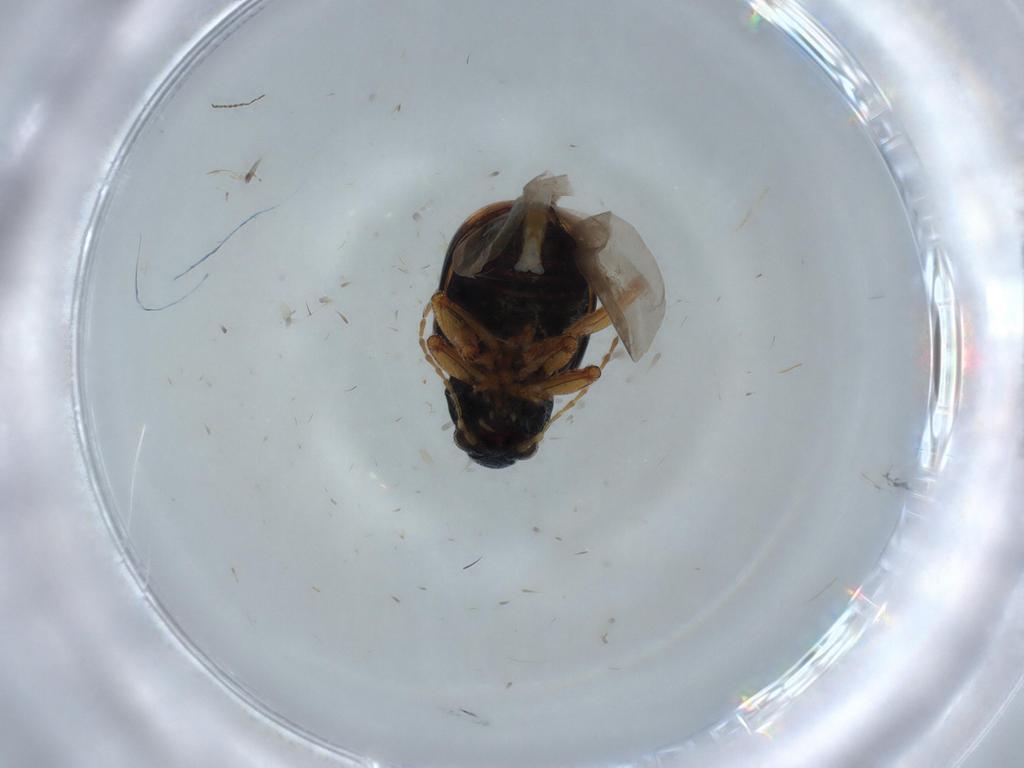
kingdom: Animalia
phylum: Arthropoda
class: Insecta
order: Coleoptera
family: Chrysomelidae
